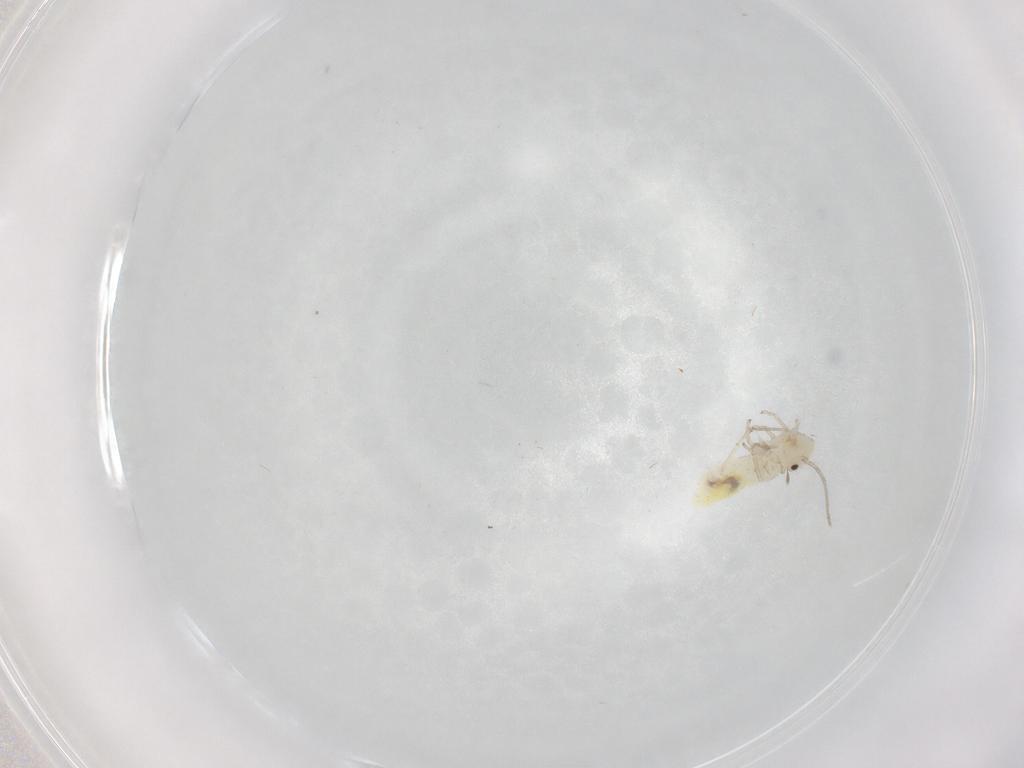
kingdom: Animalia
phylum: Arthropoda
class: Insecta
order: Psocodea
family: Caeciliusidae
